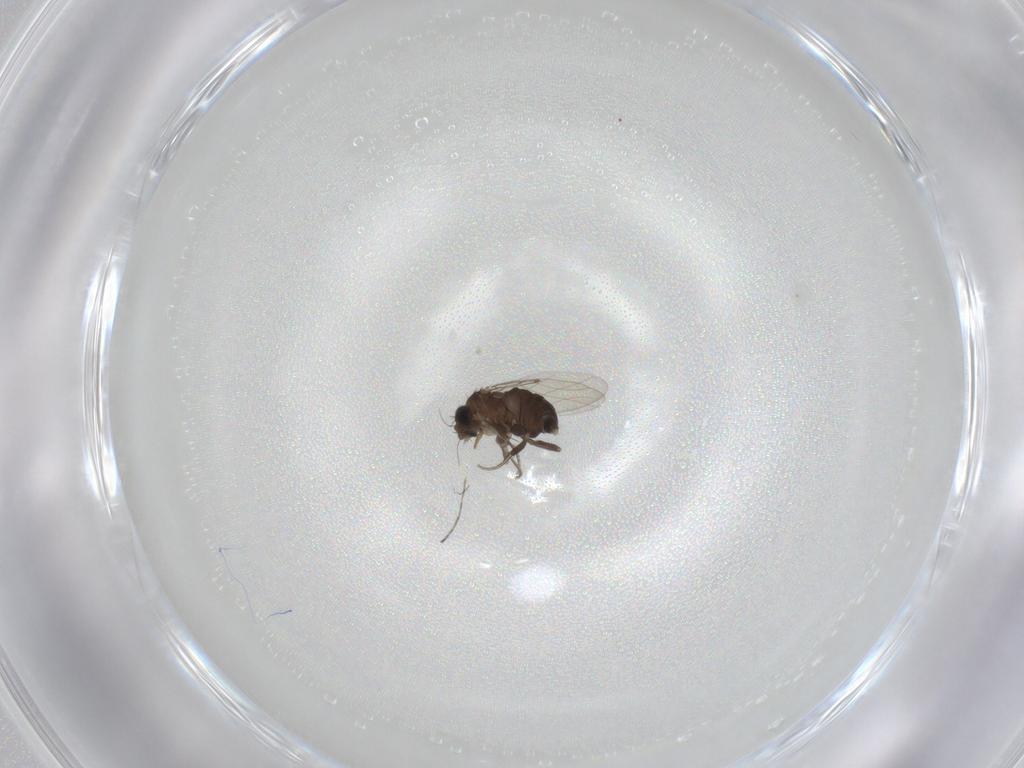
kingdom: Animalia
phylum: Arthropoda
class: Insecta
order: Diptera
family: Phoridae
